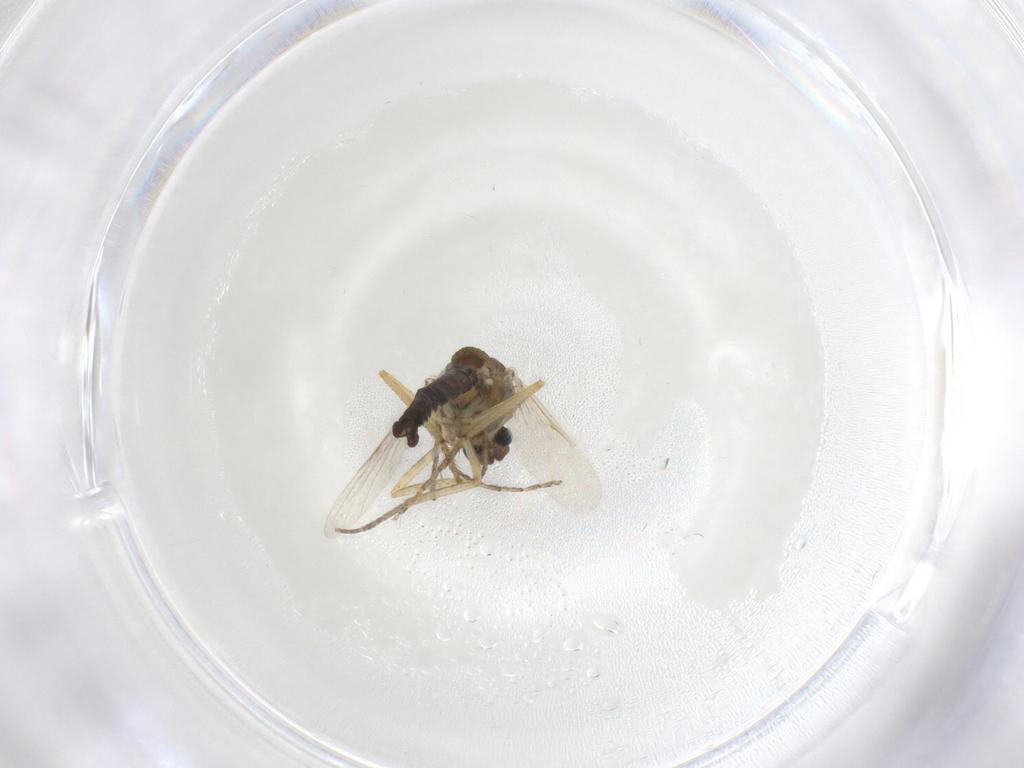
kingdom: Animalia
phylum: Arthropoda
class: Insecta
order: Diptera
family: Ceratopogonidae
